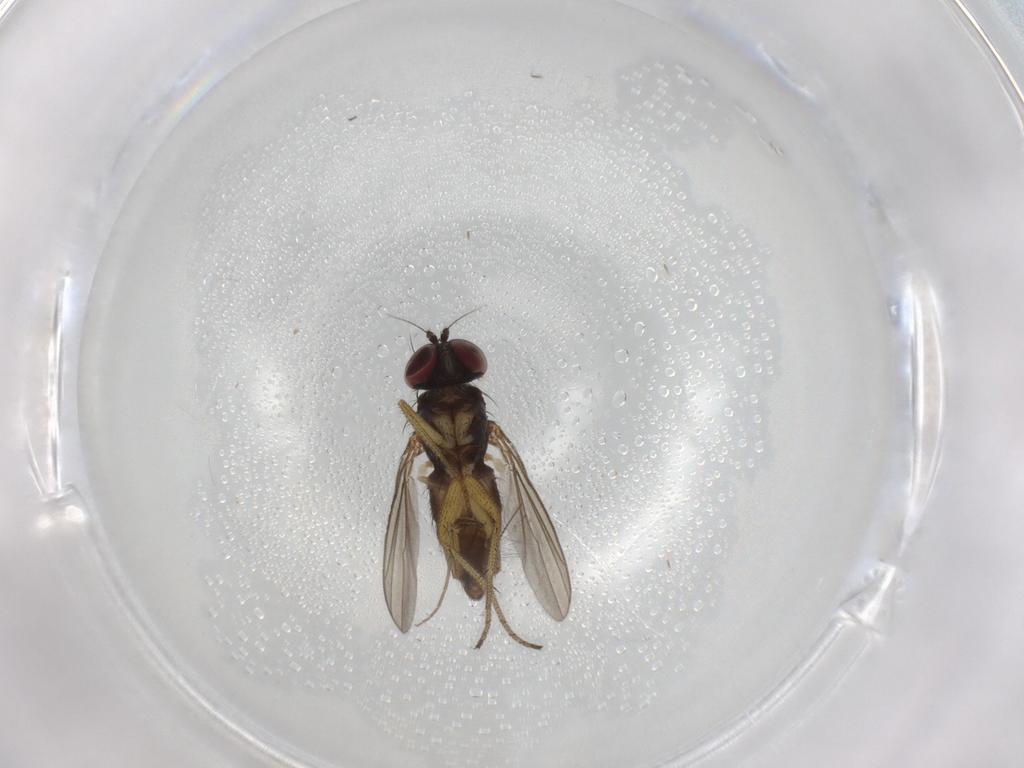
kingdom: Animalia
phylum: Arthropoda
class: Insecta
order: Diptera
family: Chironomidae
